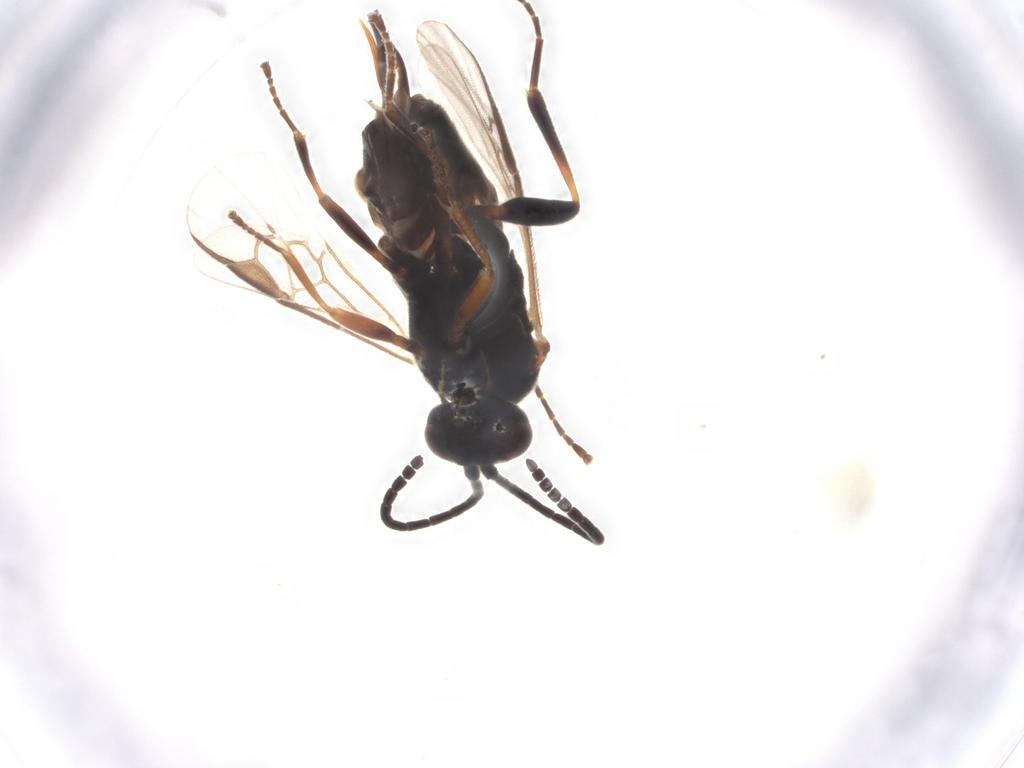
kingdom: Animalia
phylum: Arthropoda
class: Insecta
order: Hymenoptera
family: Braconidae
